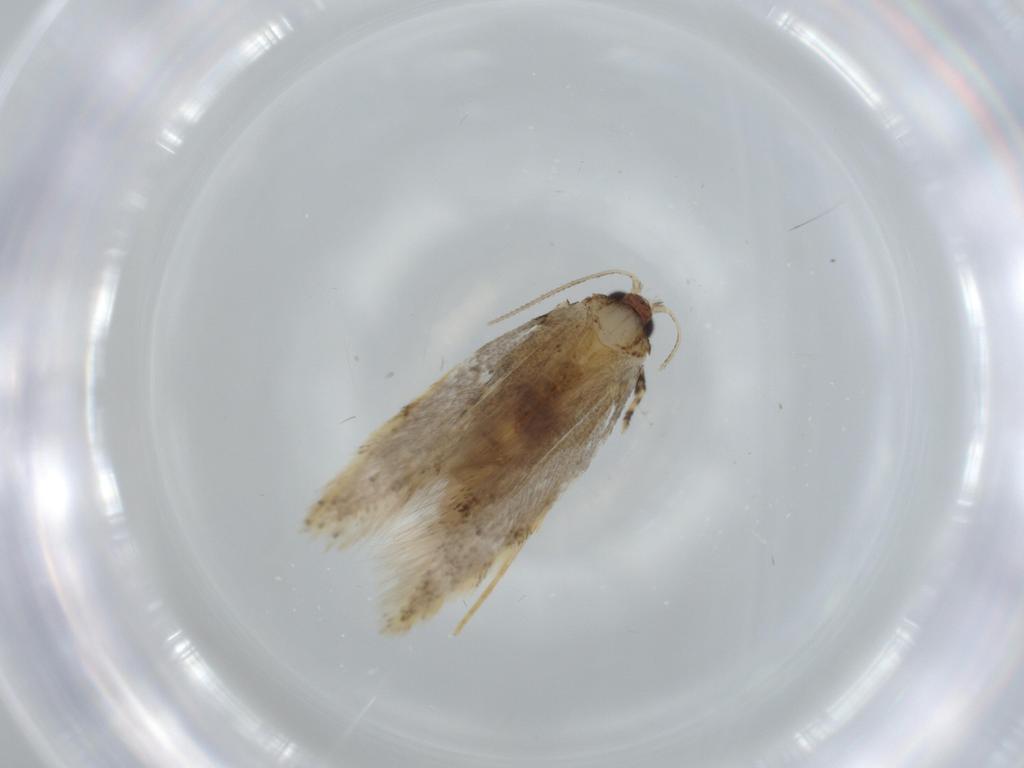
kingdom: Animalia
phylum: Arthropoda
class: Insecta
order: Lepidoptera
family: Tineidae
